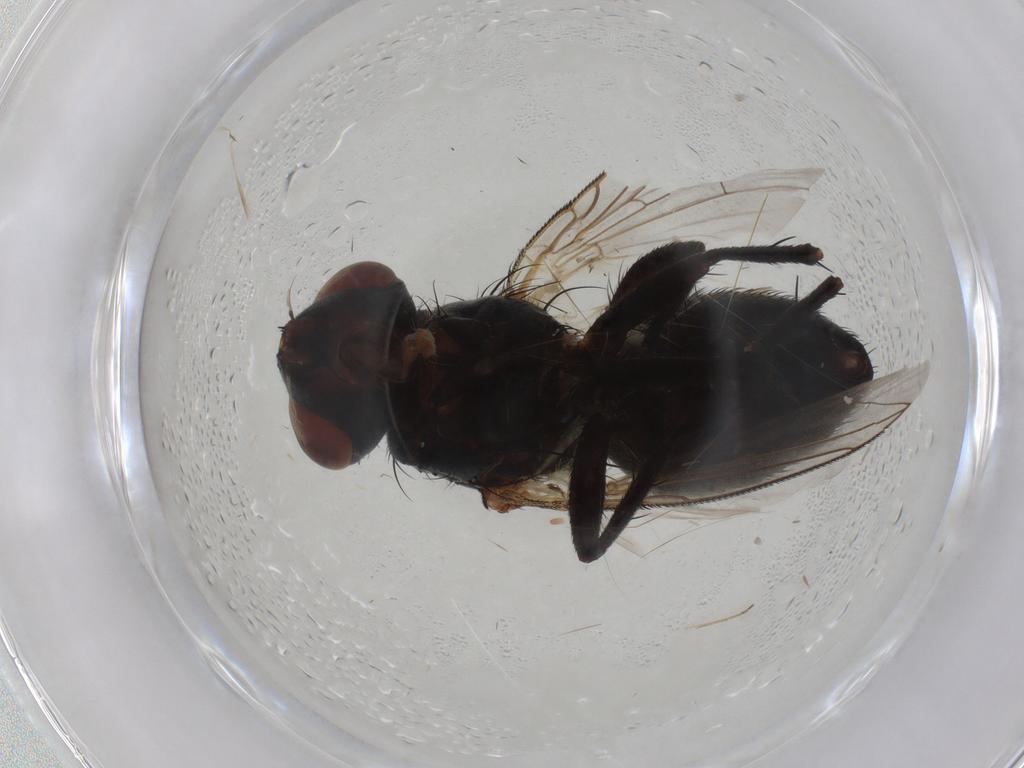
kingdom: Animalia
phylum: Arthropoda
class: Insecta
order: Diptera
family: Sarcophagidae
